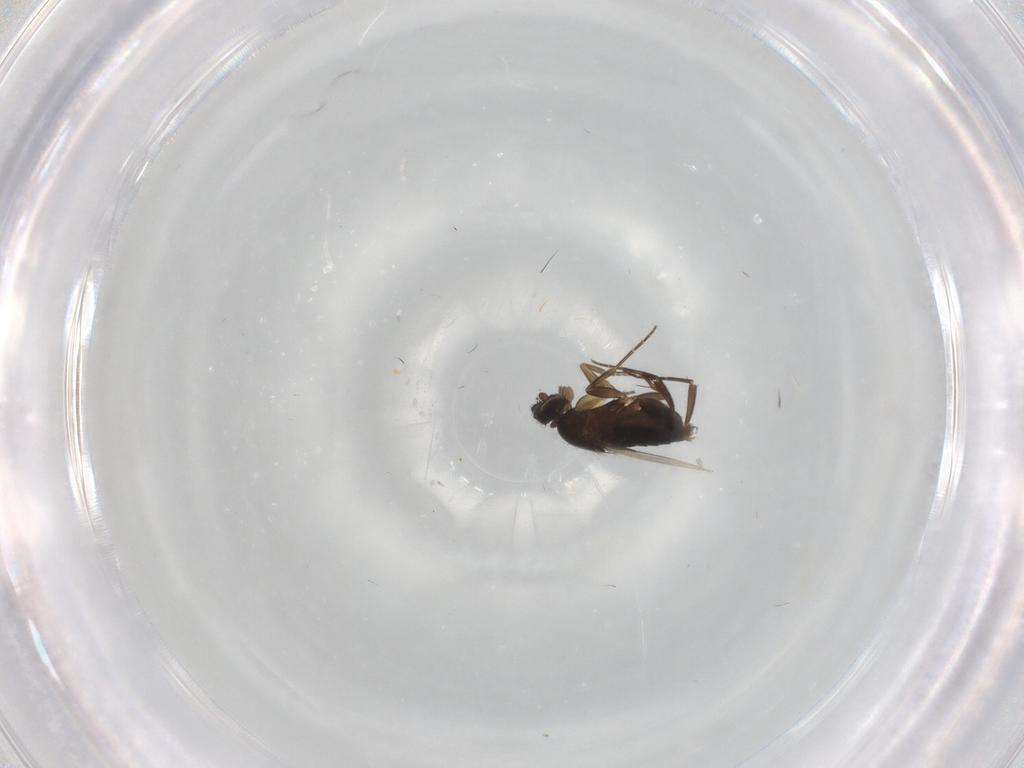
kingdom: Animalia
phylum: Arthropoda
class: Insecta
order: Diptera
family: Phoridae
